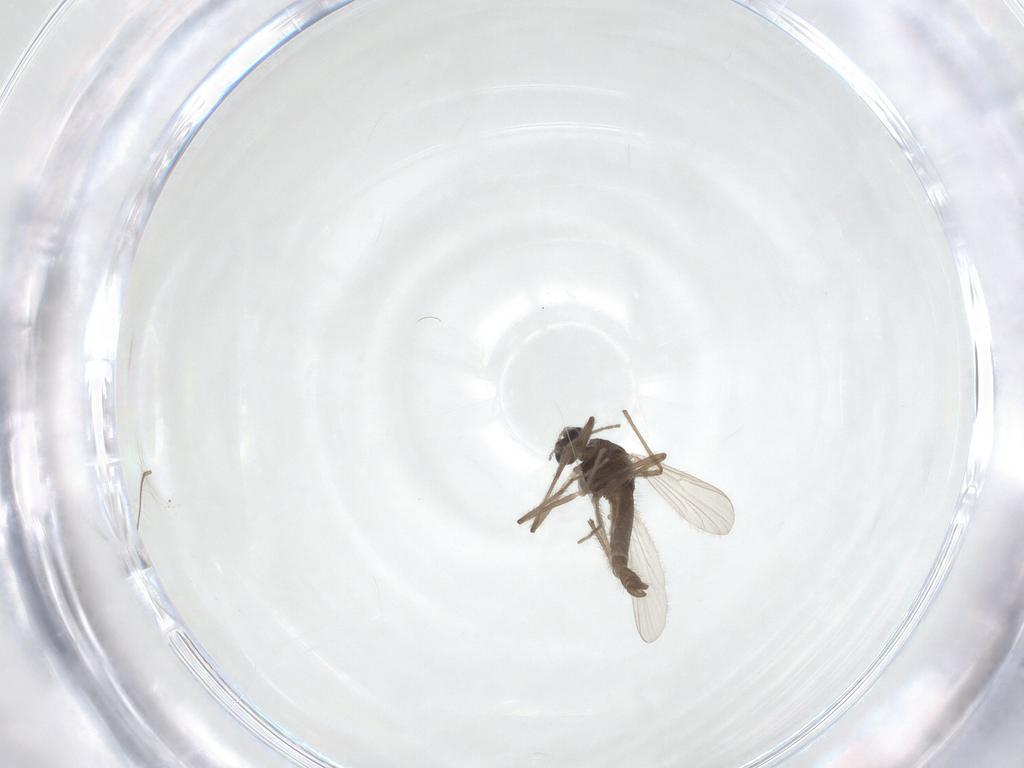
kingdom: Animalia
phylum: Arthropoda
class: Insecta
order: Diptera
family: Chironomidae
